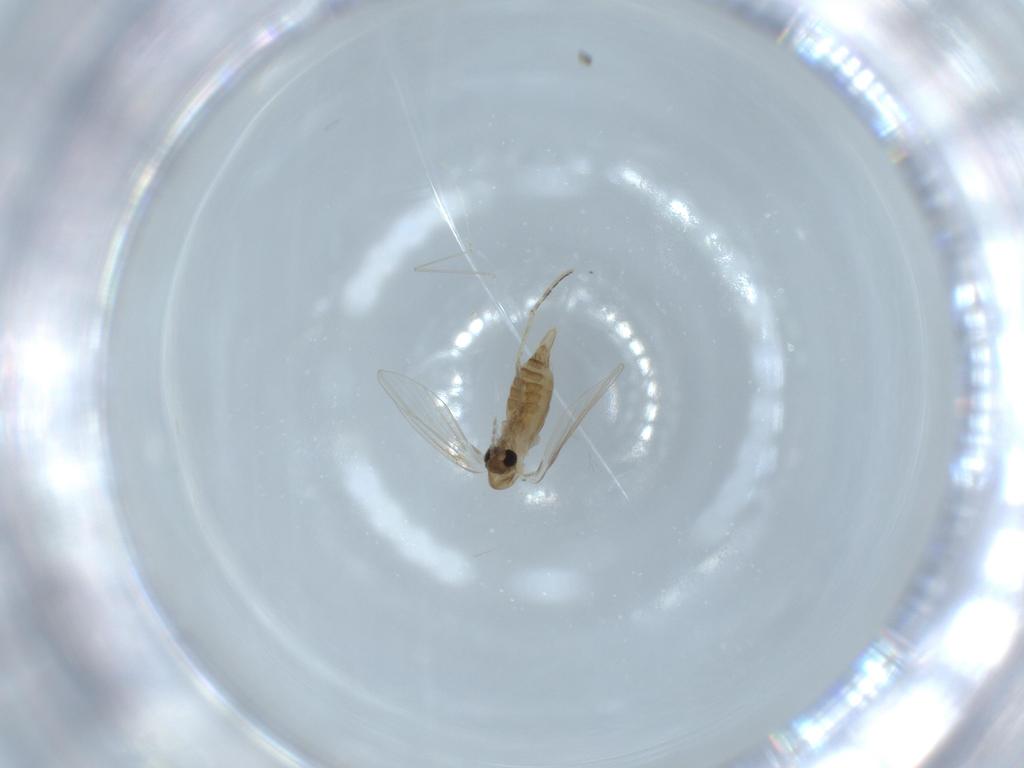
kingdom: Animalia
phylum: Arthropoda
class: Insecta
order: Diptera
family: Psychodidae
